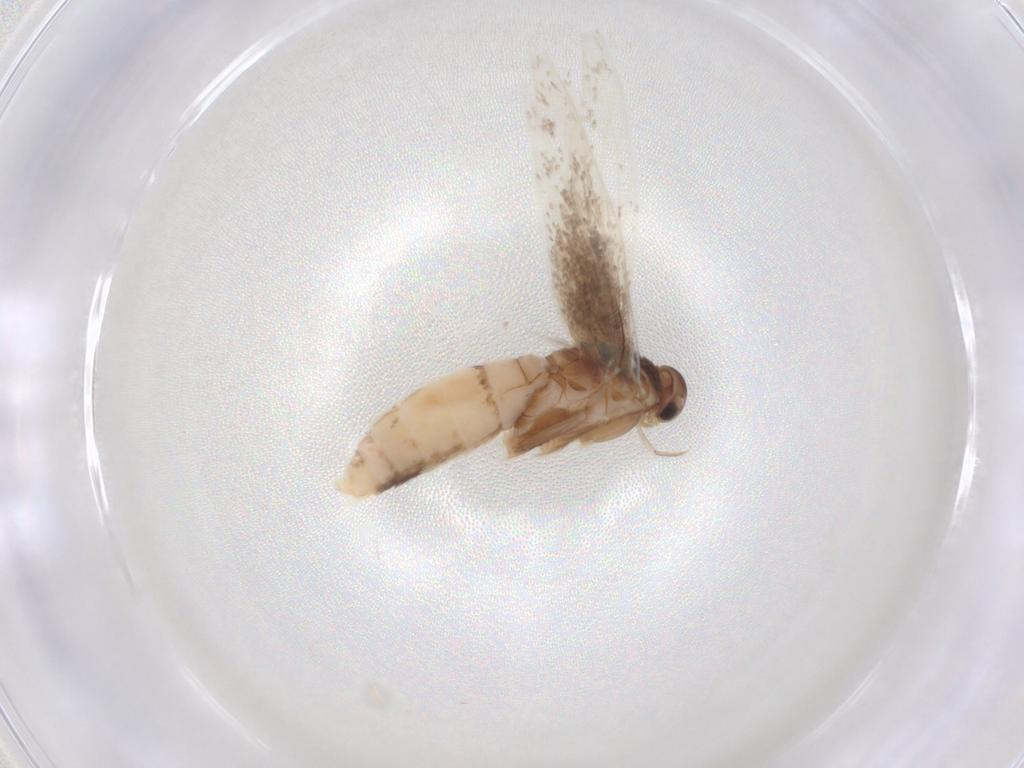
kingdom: Animalia
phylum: Arthropoda
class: Insecta
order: Lepidoptera
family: Elachistidae
